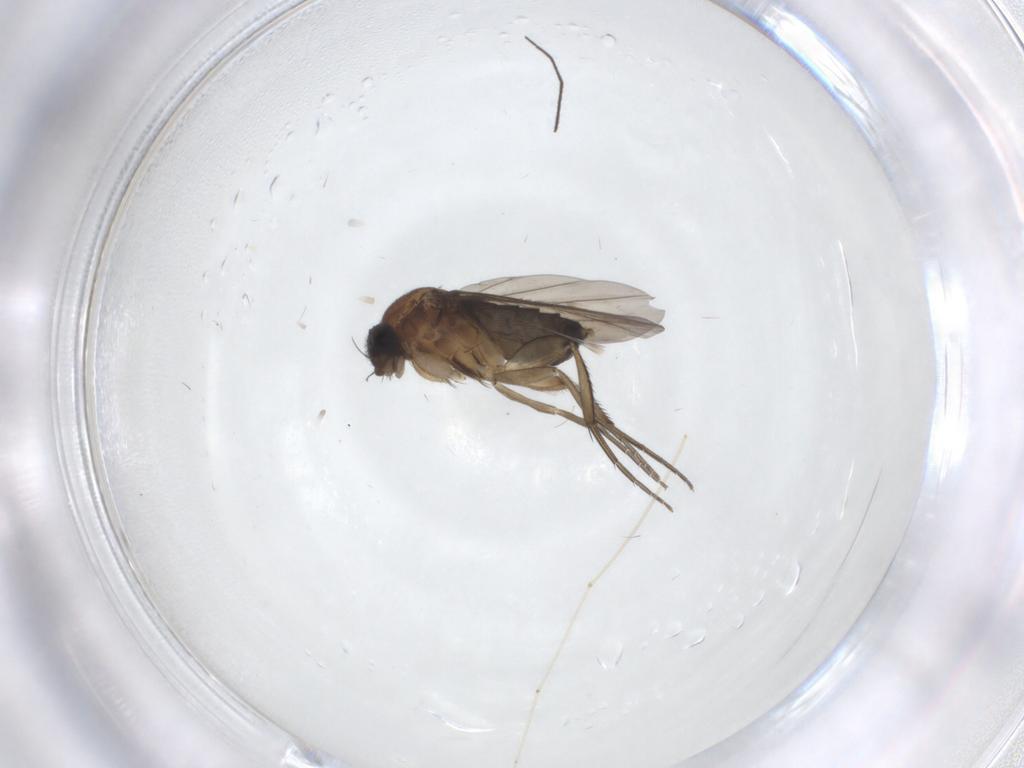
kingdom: Animalia
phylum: Arthropoda
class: Insecta
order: Diptera
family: Phoridae
